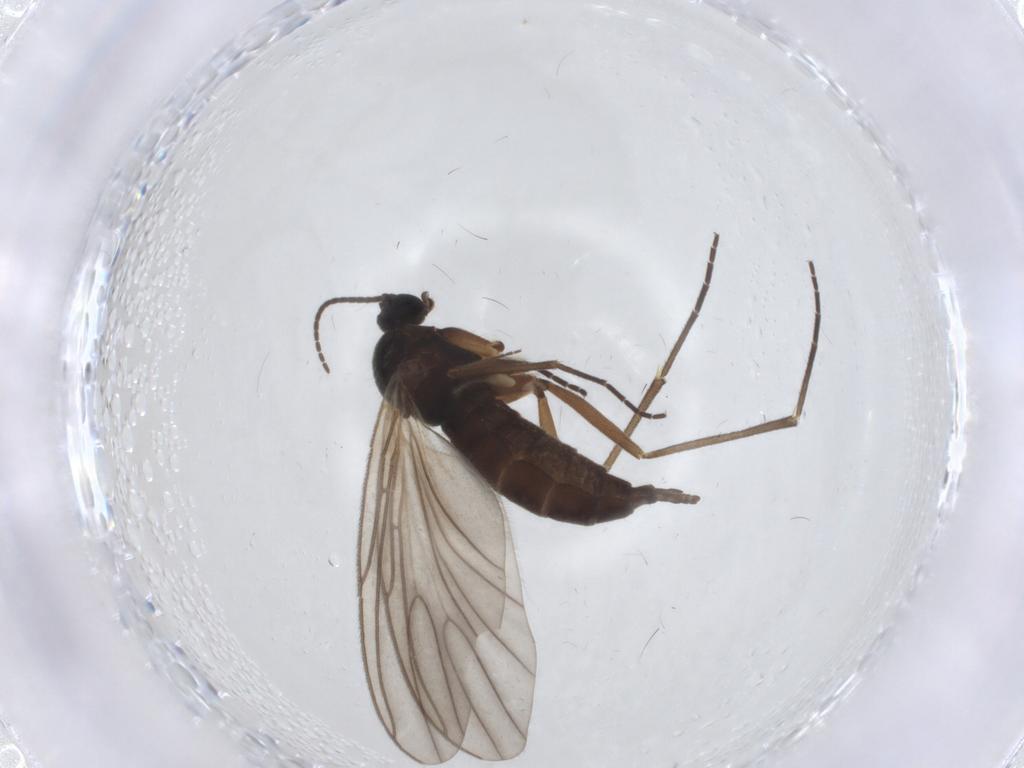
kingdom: Animalia
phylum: Arthropoda
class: Insecta
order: Diptera
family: Sciaridae
